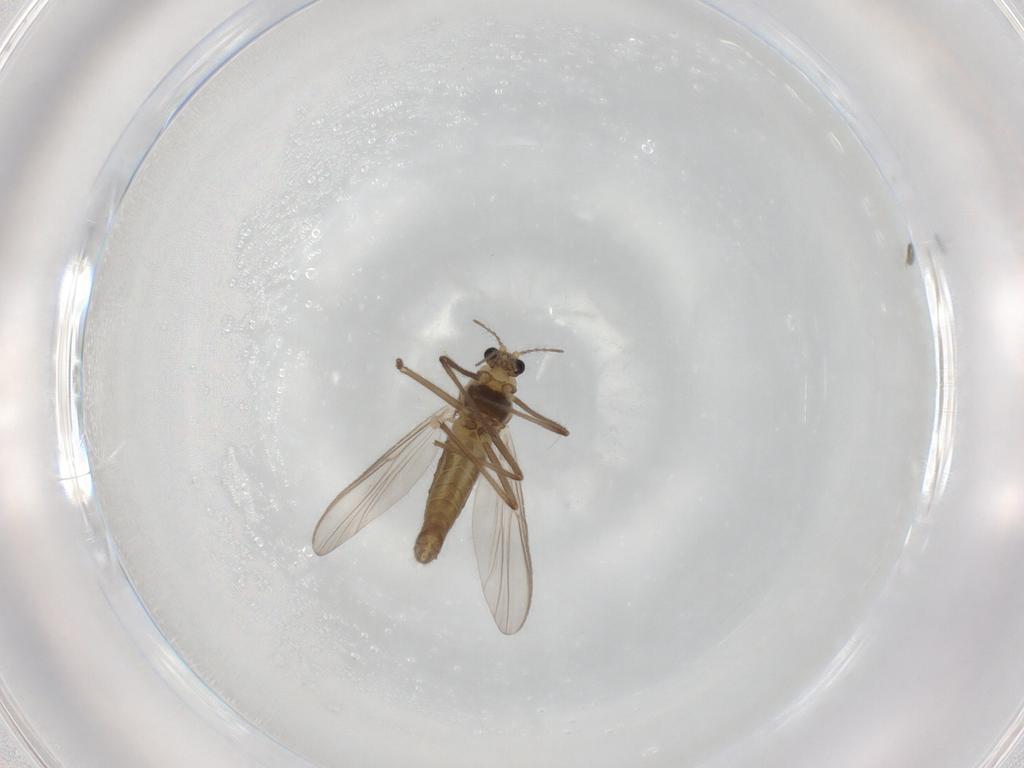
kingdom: Animalia
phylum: Arthropoda
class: Insecta
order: Diptera
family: Chironomidae
